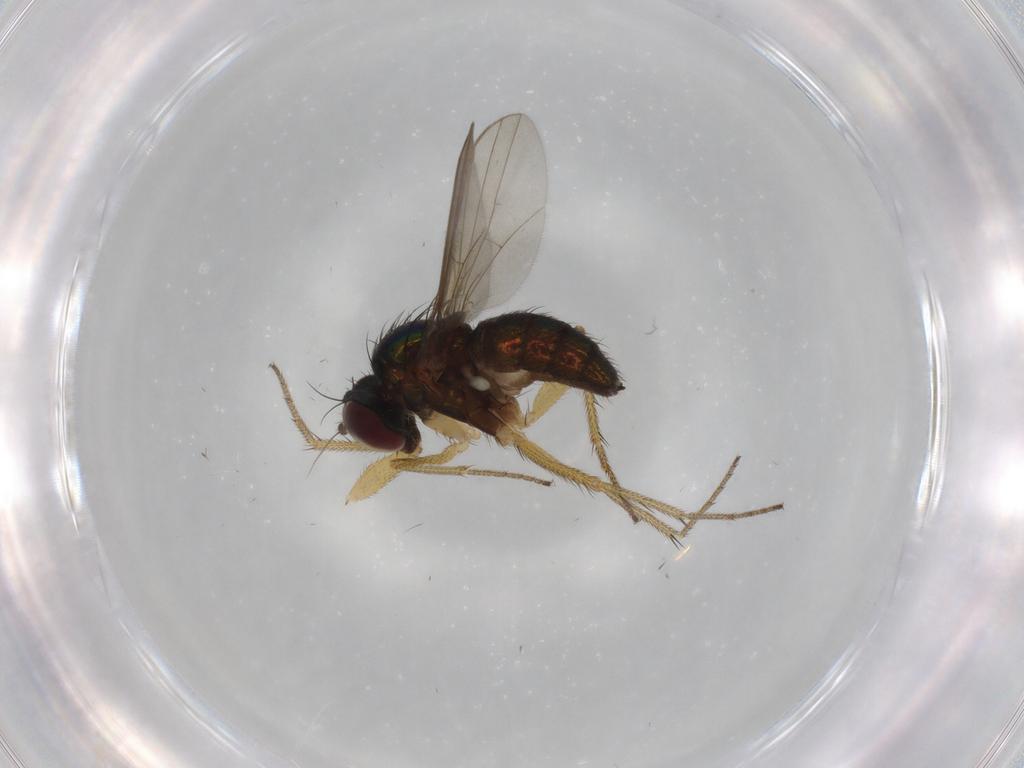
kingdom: Animalia
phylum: Arthropoda
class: Insecta
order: Diptera
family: Dolichopodidae
